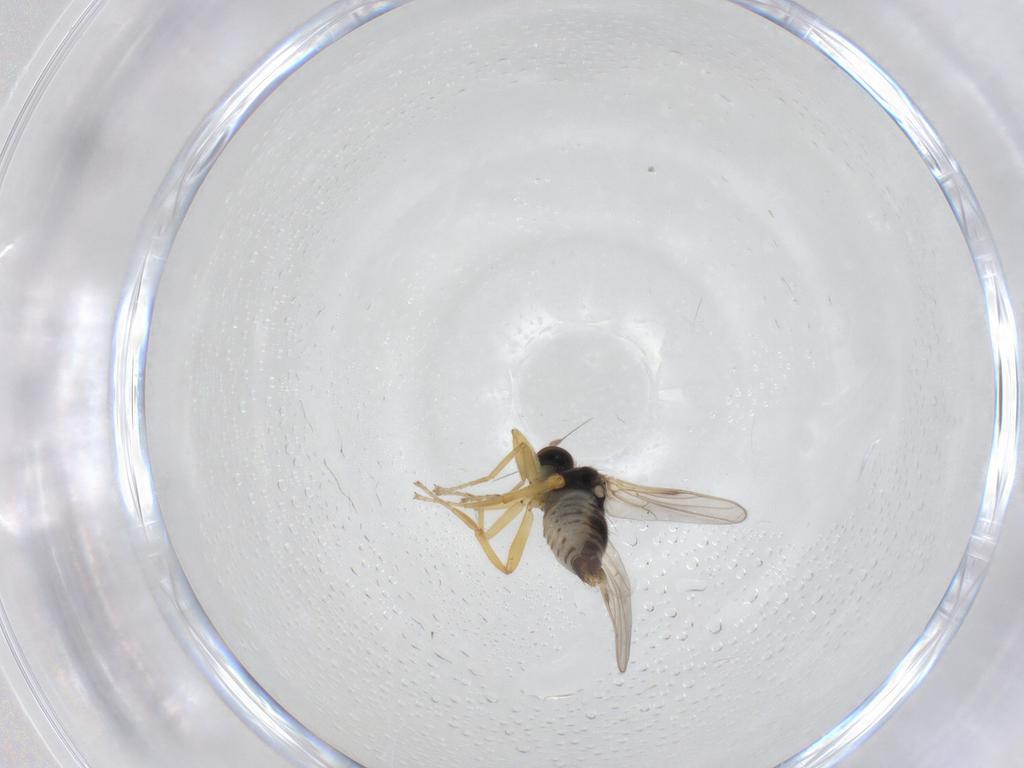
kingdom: Animalia
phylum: Arthropoda
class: Insecta
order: Diptera
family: Hybotidae
